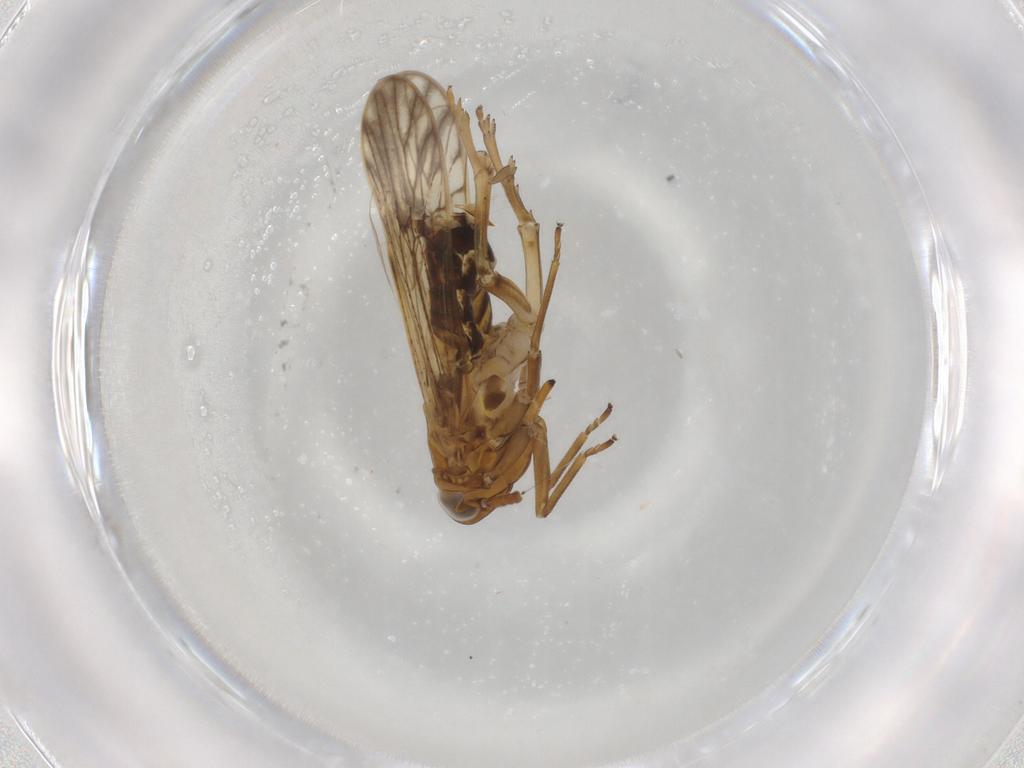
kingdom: Animalia
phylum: Arthropoda
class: Insecta
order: Hemiptera
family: Delphacidae
